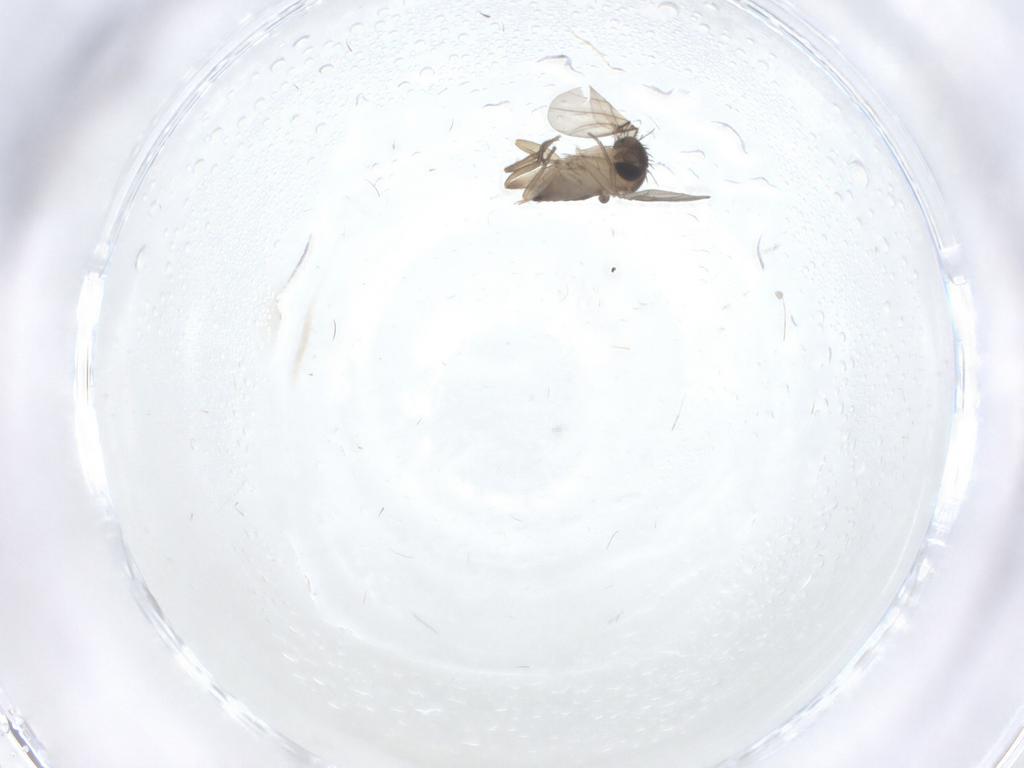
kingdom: Animalia
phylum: Arthropoda
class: Insecta
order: Diptera
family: Phoridae
